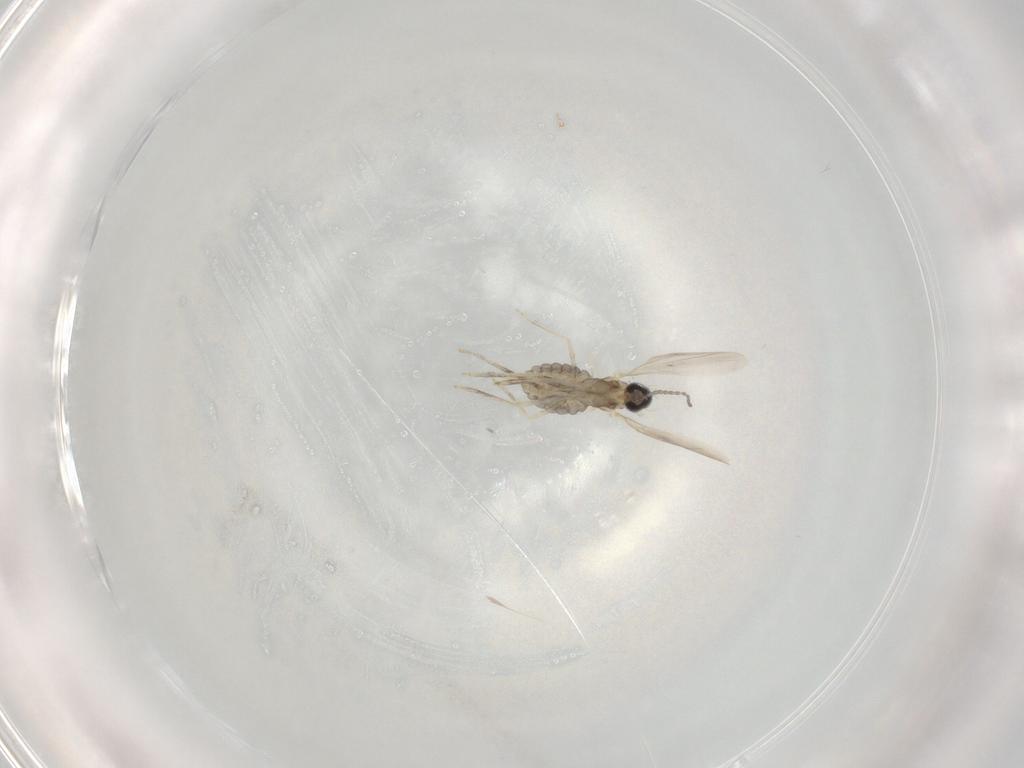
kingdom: Animalia
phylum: Arthropoda
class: Insecta
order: Diptera
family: Cecidomyiidae
